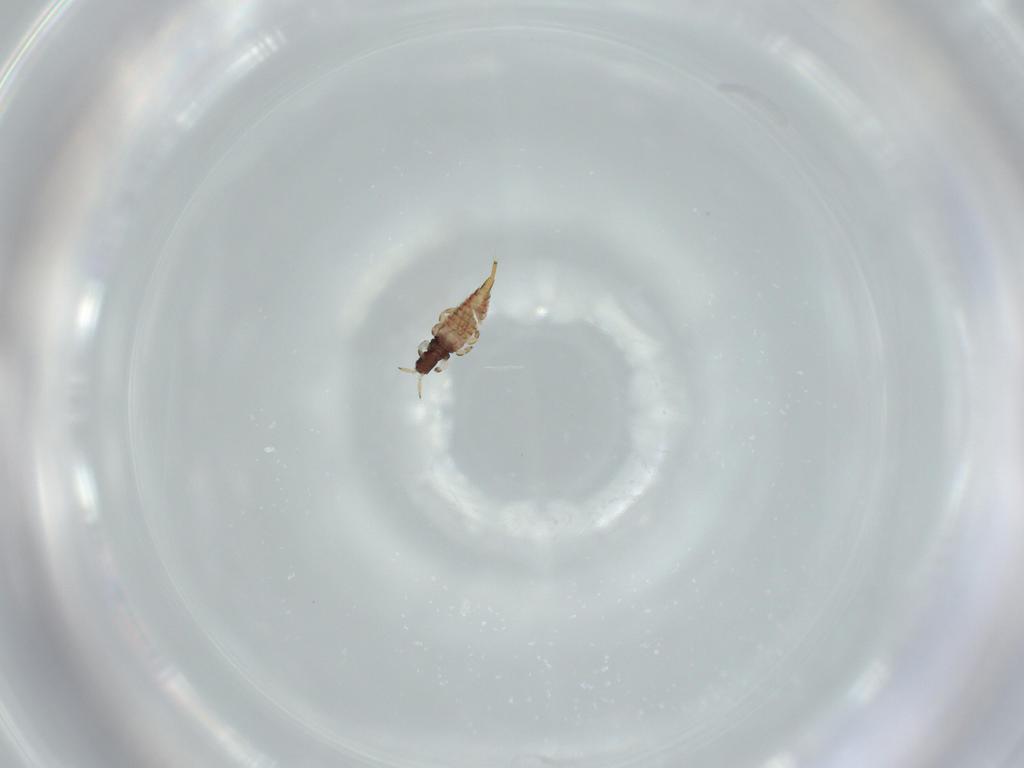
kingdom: Animalia
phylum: Arthropoda
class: Insecta
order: Thysanoptera
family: Phlaeothripidae
